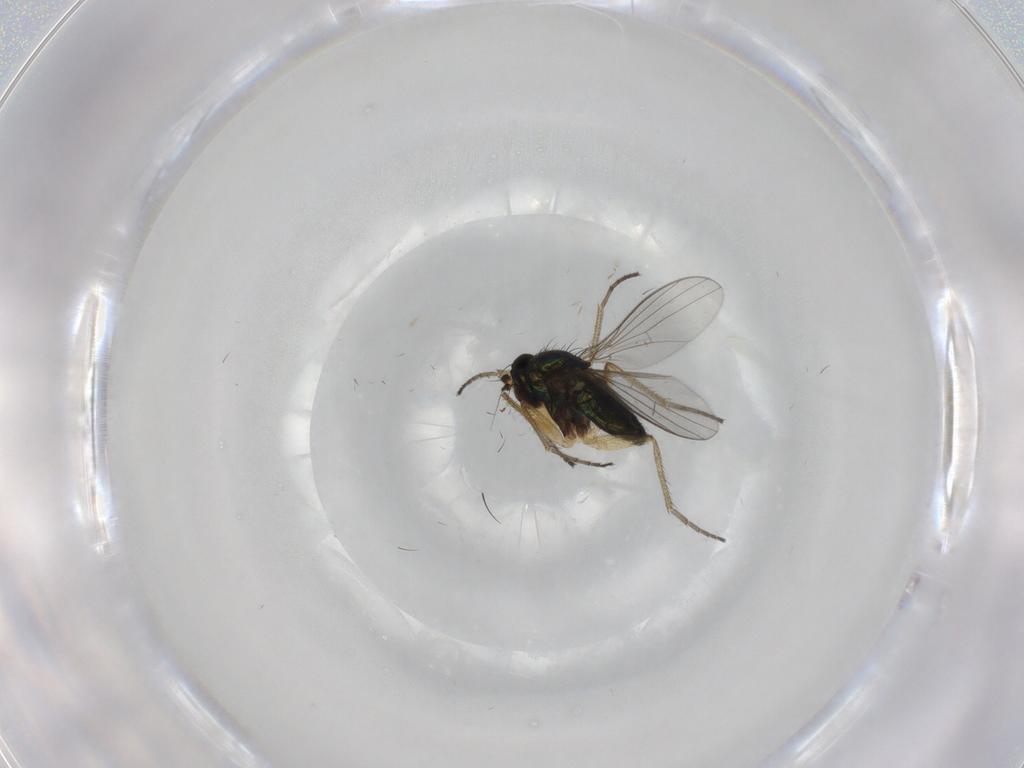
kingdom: Animalia
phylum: Arthropoda
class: Insecta
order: Diptera
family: Dolichopodidae
